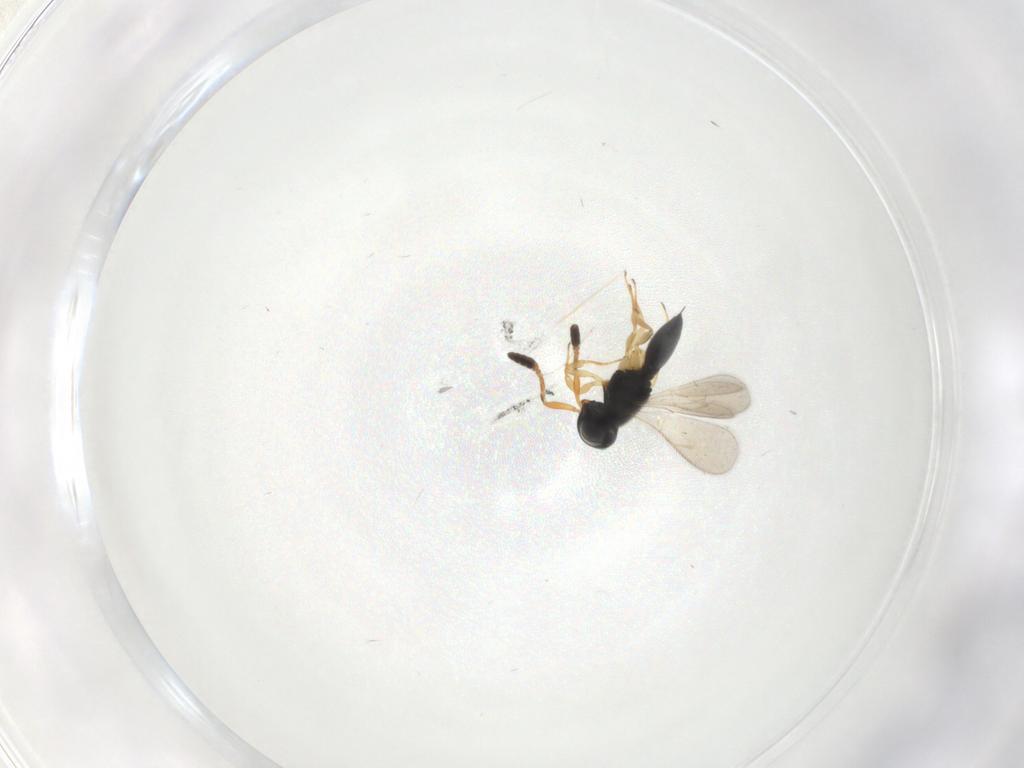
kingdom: Animalia
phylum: Arthropoda
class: Insecta
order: Hymenoptera
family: Scelionidae
